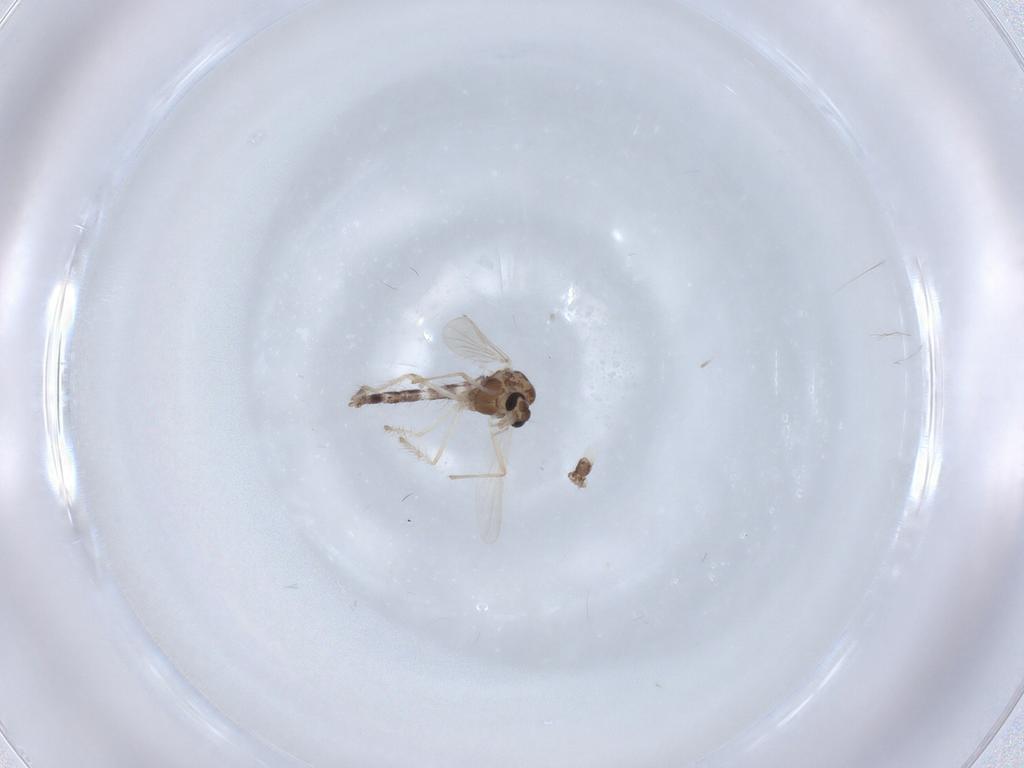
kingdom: Animalia
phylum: Arthropoda
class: Insecta
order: Diptera
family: Chironomidae
